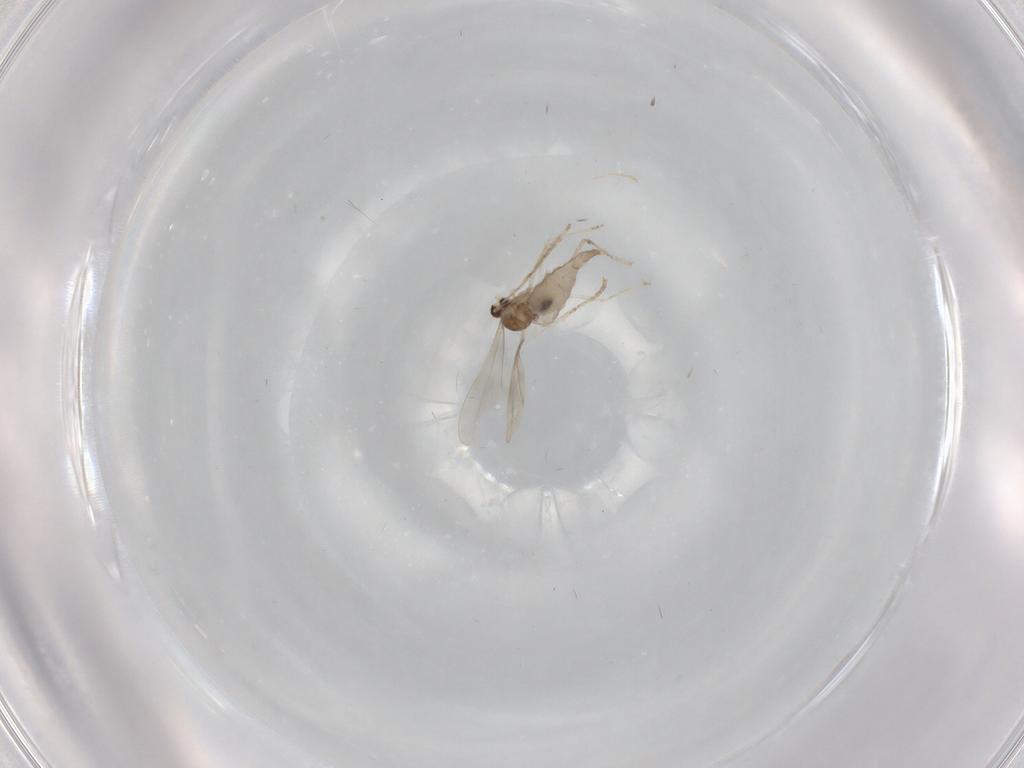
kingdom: Animalia
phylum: Arthropoda
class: Insecta
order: Diptera
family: Cecidomyiidae
